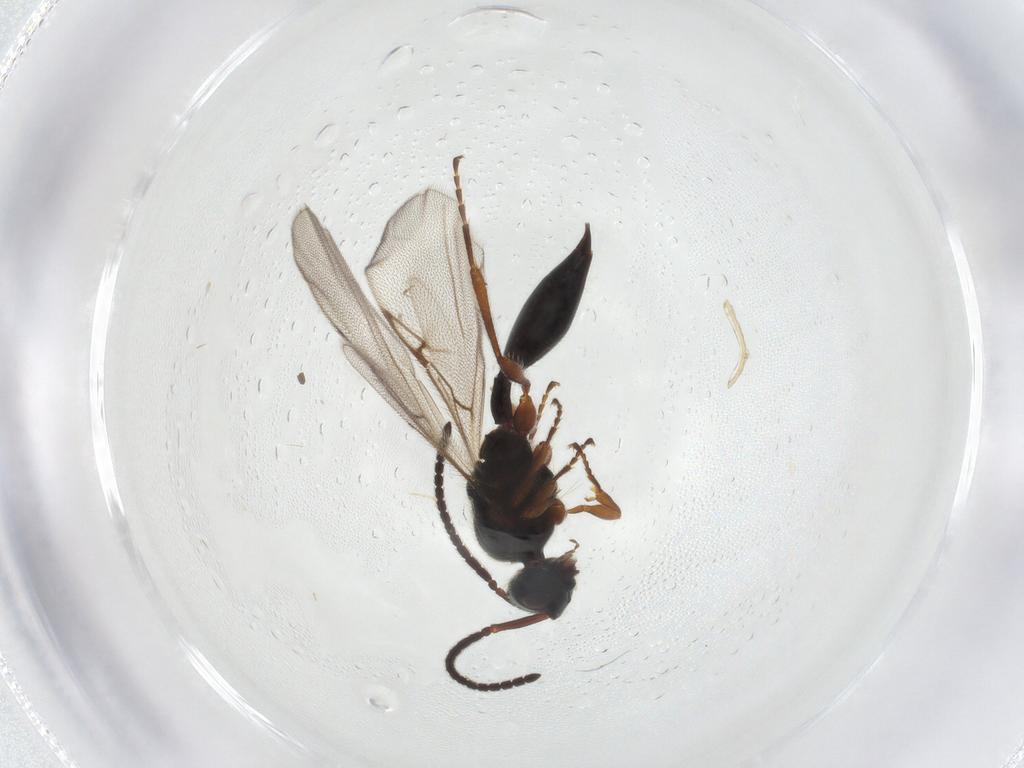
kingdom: Animalia
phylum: Arthropoda
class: Insecta
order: Hymenoptera
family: Diapriidae
